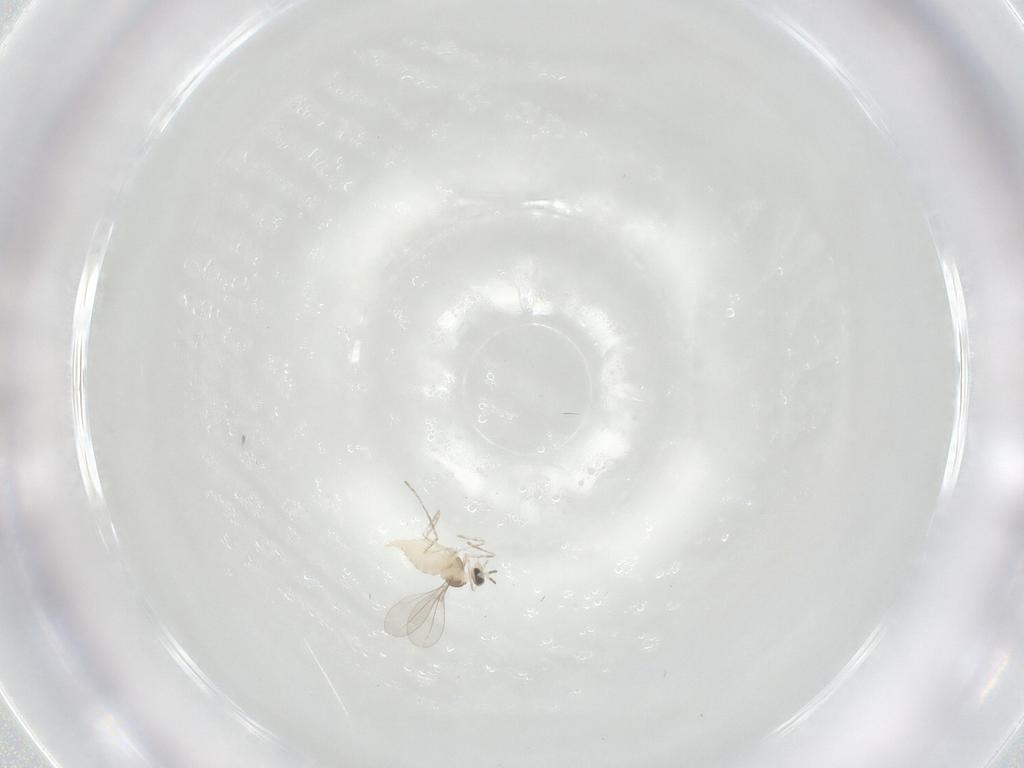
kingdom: Animalia
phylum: Arthropoda
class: Insecta
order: Diptera
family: Cecidomyiidae
